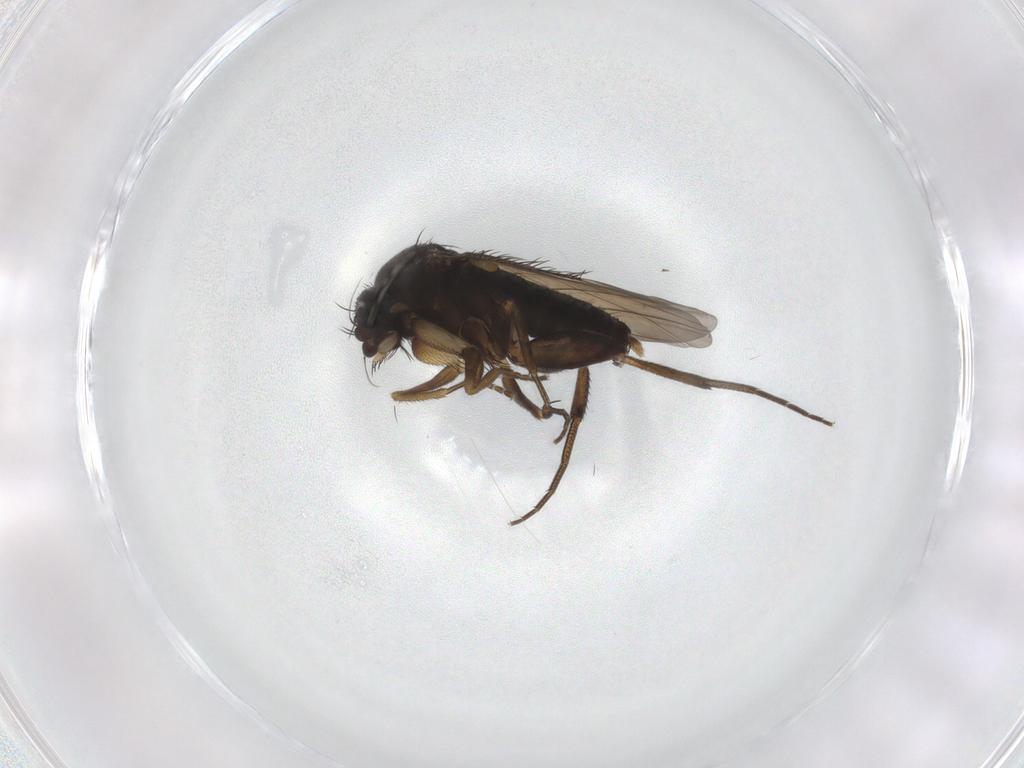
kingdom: Animalia
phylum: Arthropoda
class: Insecta
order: Diptera
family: Phoridae
